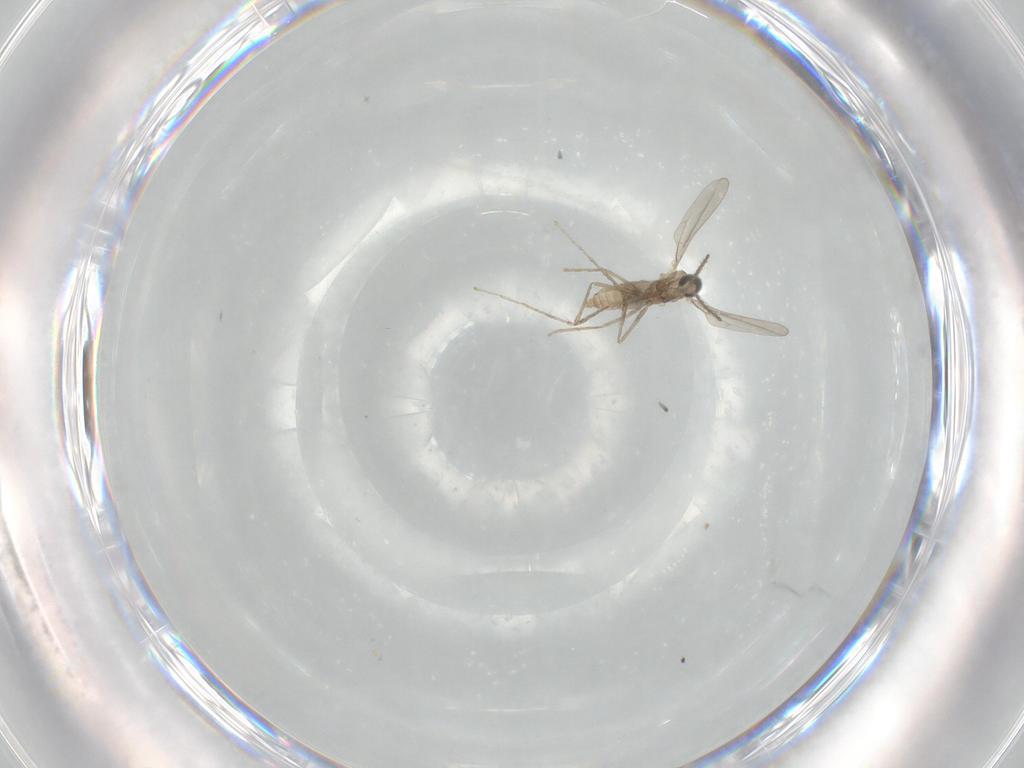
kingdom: Animalia
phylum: Arthropoda
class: Insecta
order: Diptera
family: Cecidomyiidae
